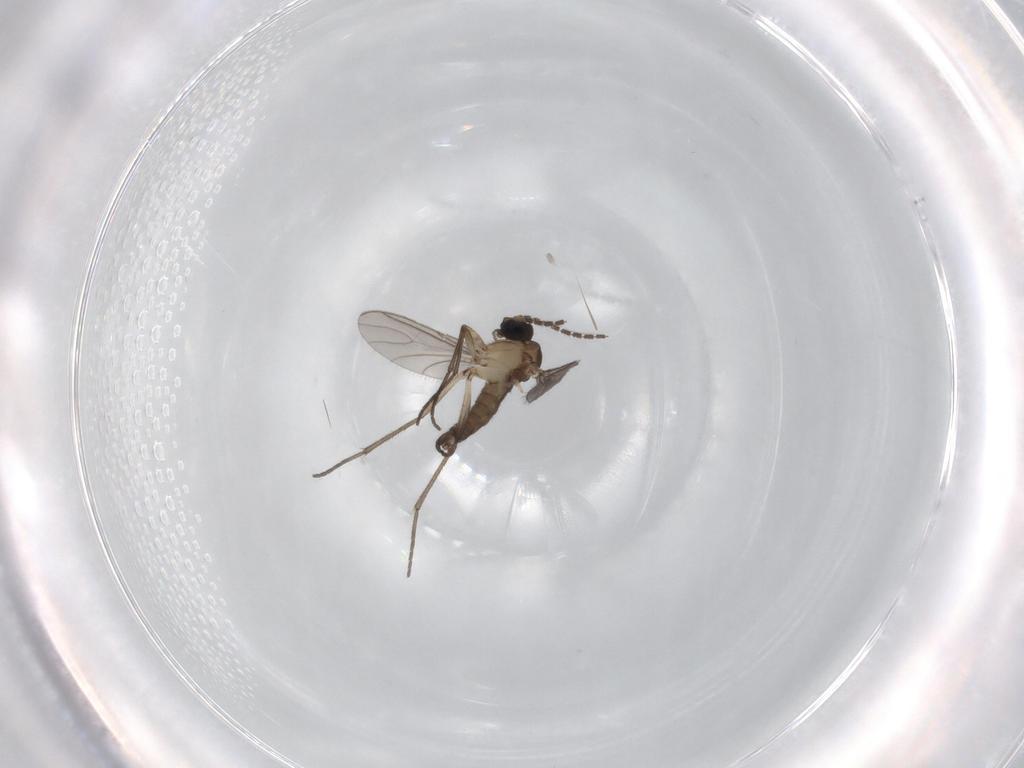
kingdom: Animalia
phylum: Arthropoda
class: Insecta
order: Diptera
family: Sciaridae
